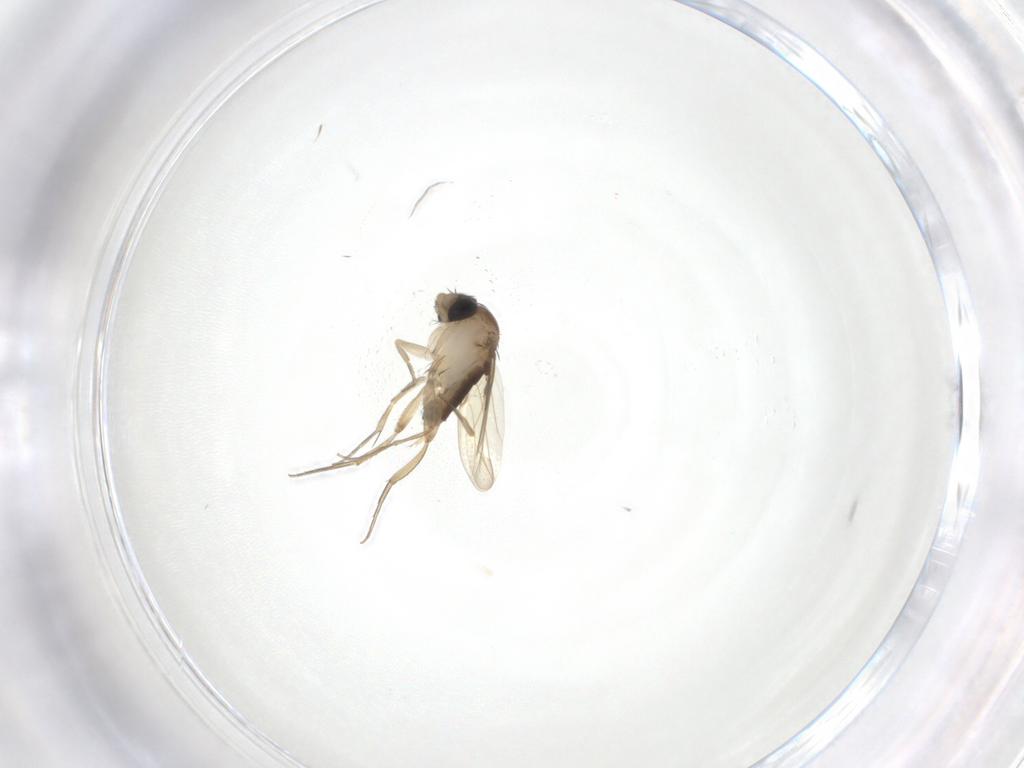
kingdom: Animalia
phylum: Arthropoda
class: Insecta
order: Diptera
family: Phoridae
